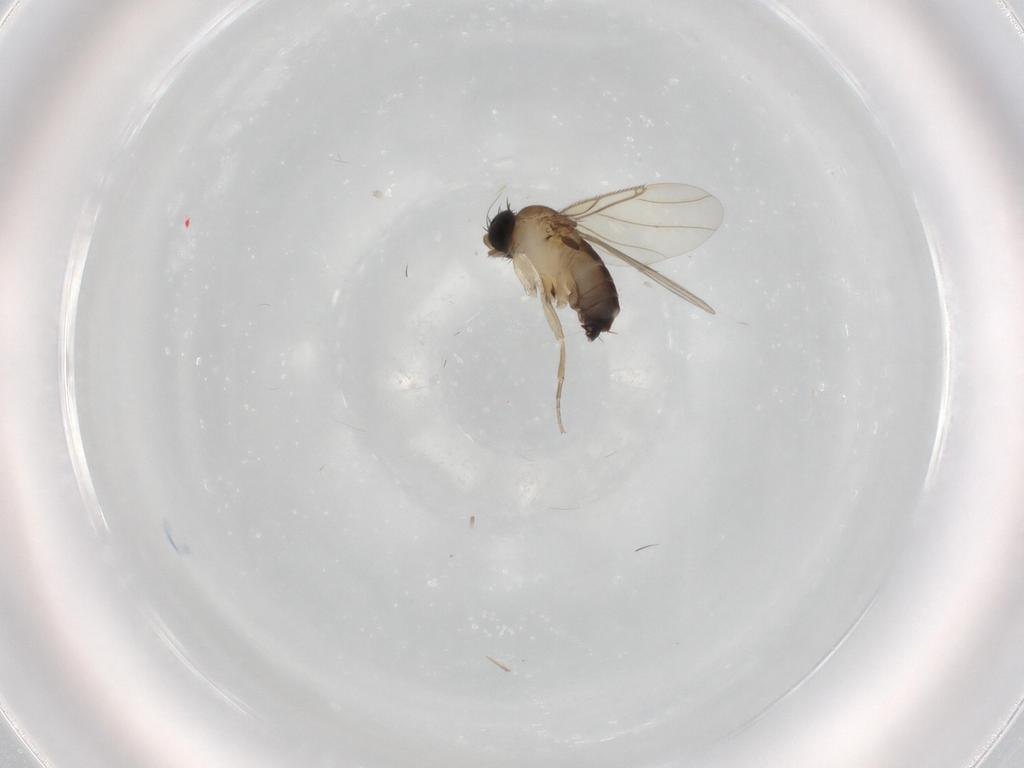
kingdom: Animalia
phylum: Arthropoda
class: Insecta
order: Diptera
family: Phoridae
